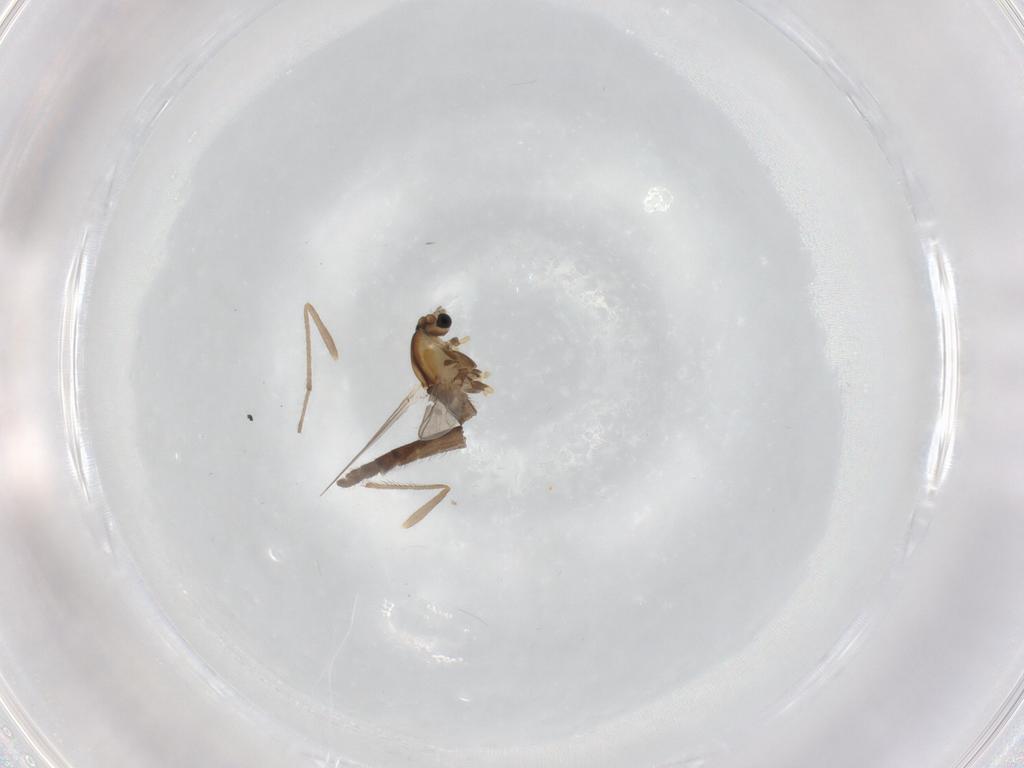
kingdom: Animalia
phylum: Arthropoda
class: Insecta
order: Diptera
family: Chironomidae
